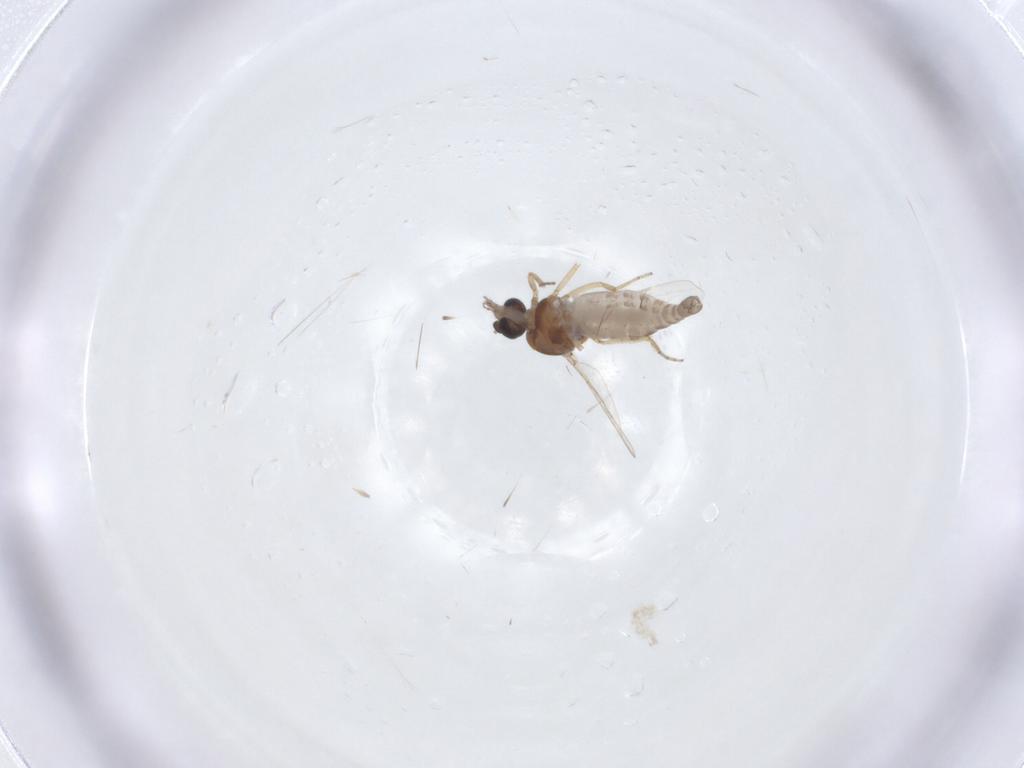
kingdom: Animalia
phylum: Arthropoda
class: Insecta
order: Diptera
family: Ceratopogonidae
